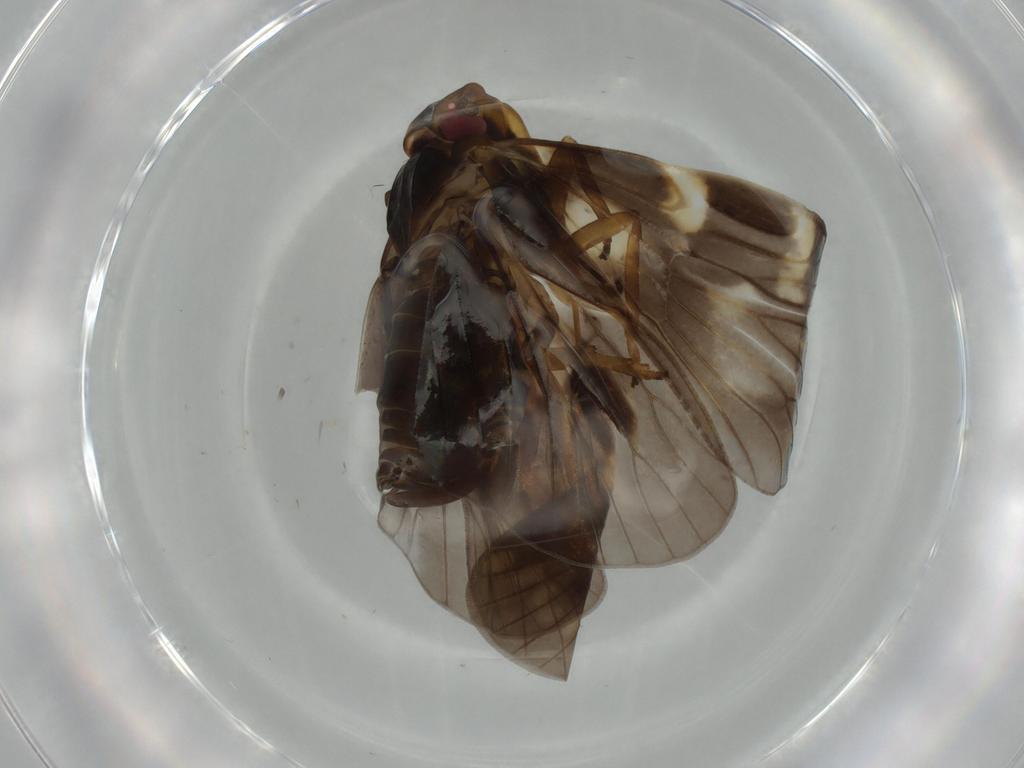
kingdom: Animalia
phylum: Arthropoda
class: Insecta
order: Hemiptera
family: Cixiidae
